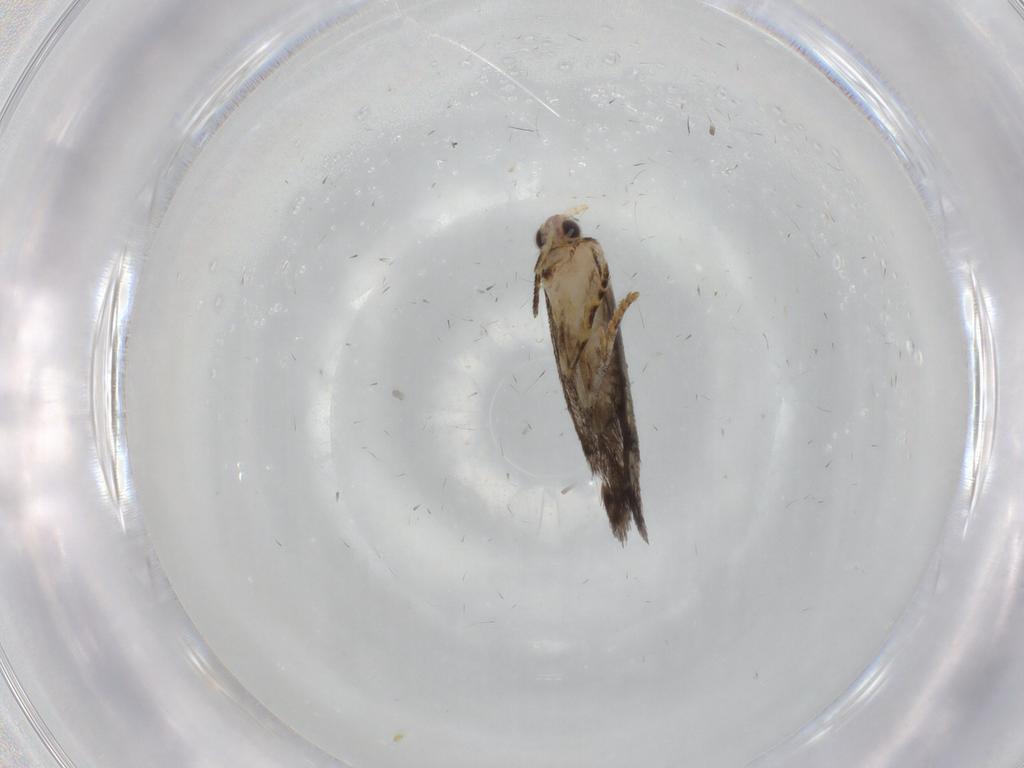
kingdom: Animalia
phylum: Arthropoda
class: Insecta
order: Lepidoptera
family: Tineidae
